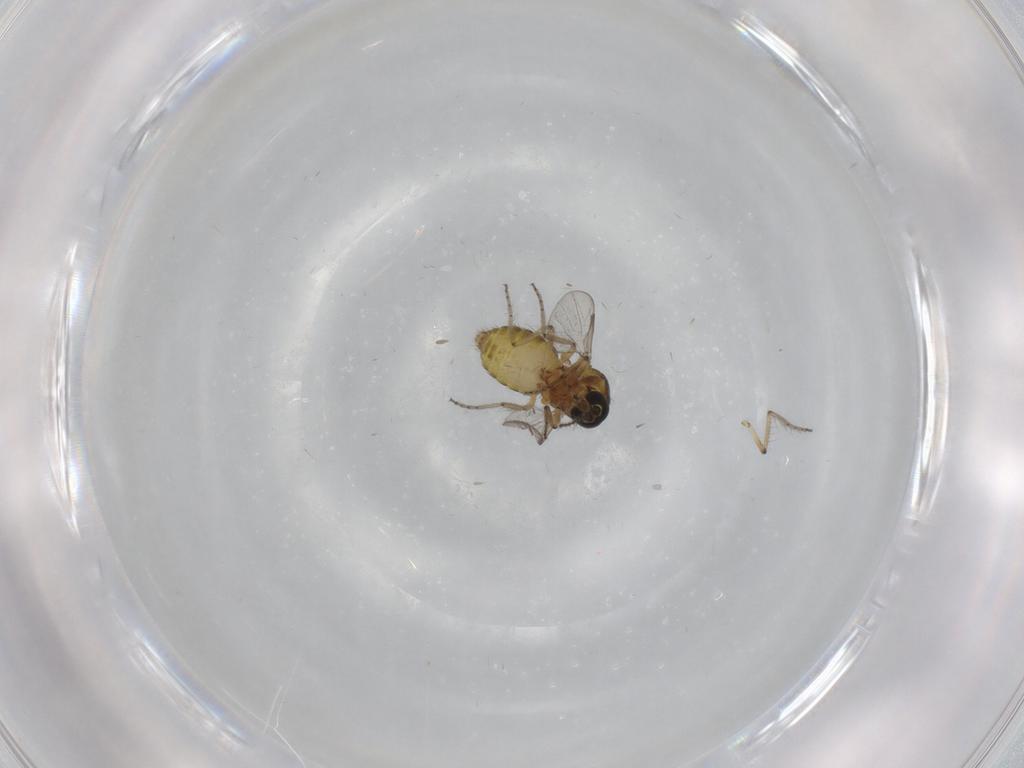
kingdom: Animalia
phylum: Arthropoda
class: Insecta
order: Diptera
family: Ceratopogonidae
